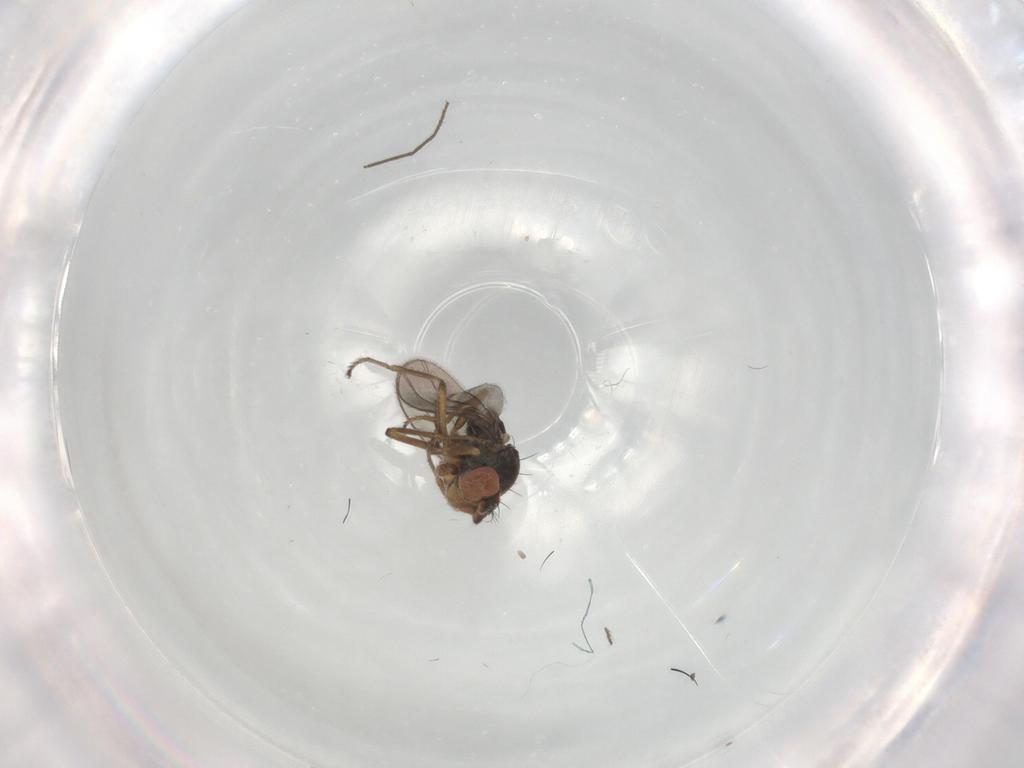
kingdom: Animalia
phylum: Arthropoda
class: Insecta
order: Diptera
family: Ephydridae
